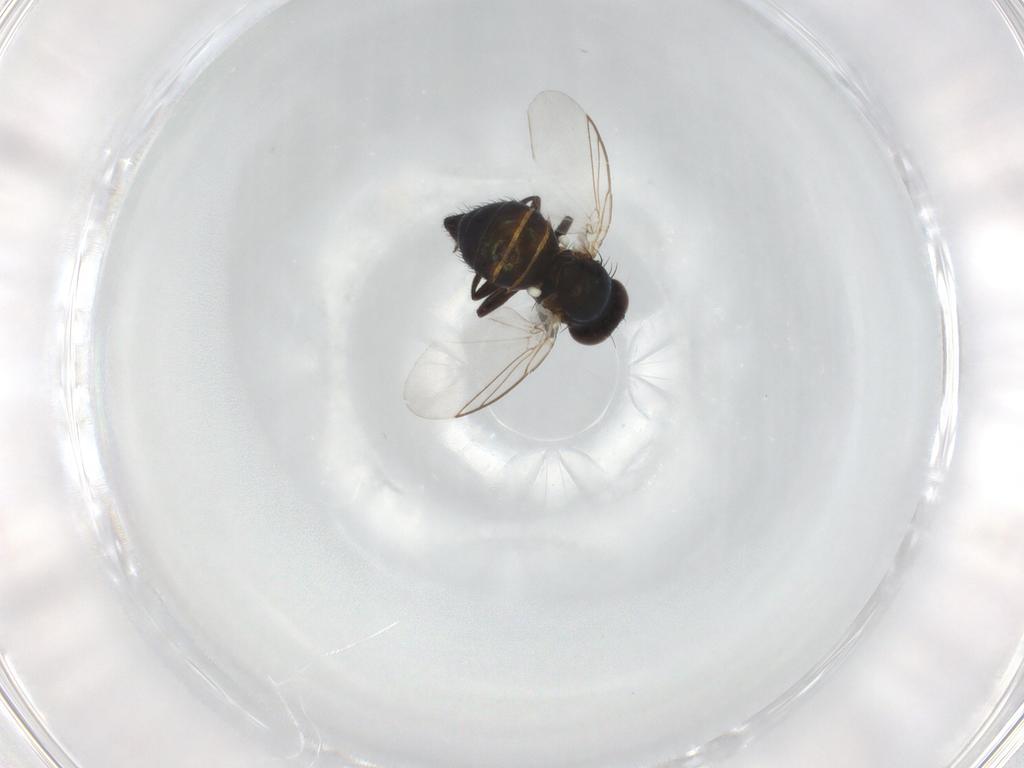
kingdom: Animalia
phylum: Arthropoda
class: Insecta
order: Diptera
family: Agromyzidae
